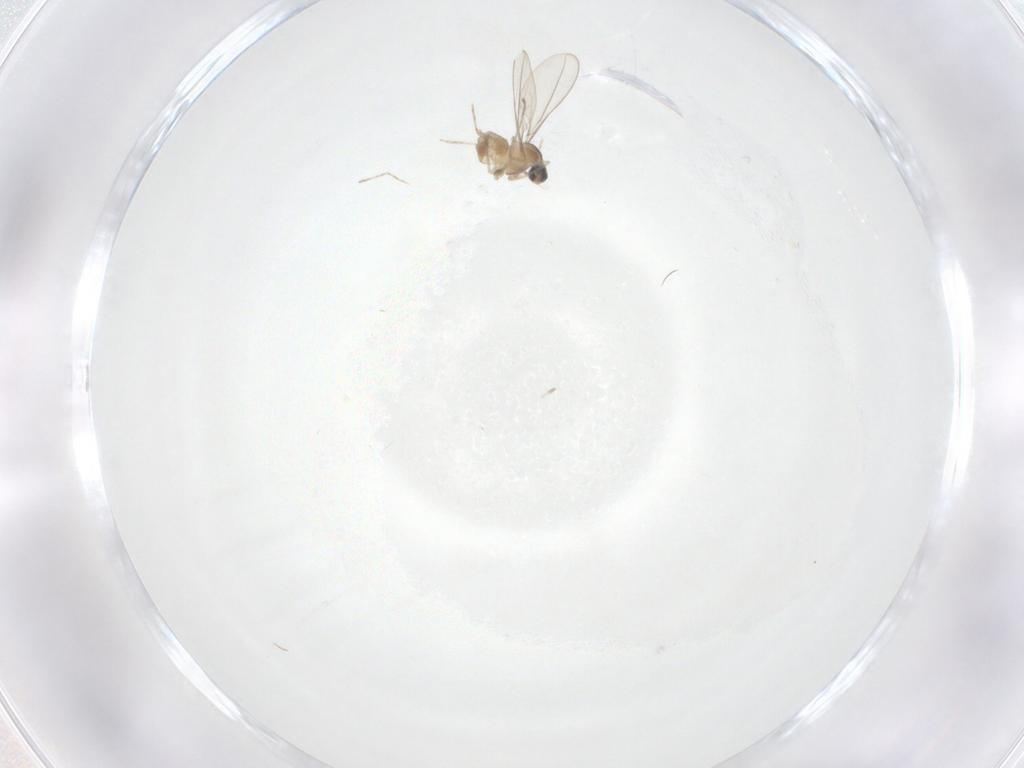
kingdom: Animalia
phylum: Arthropoda
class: Insecta
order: Diptera
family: Cecidomyiidae
